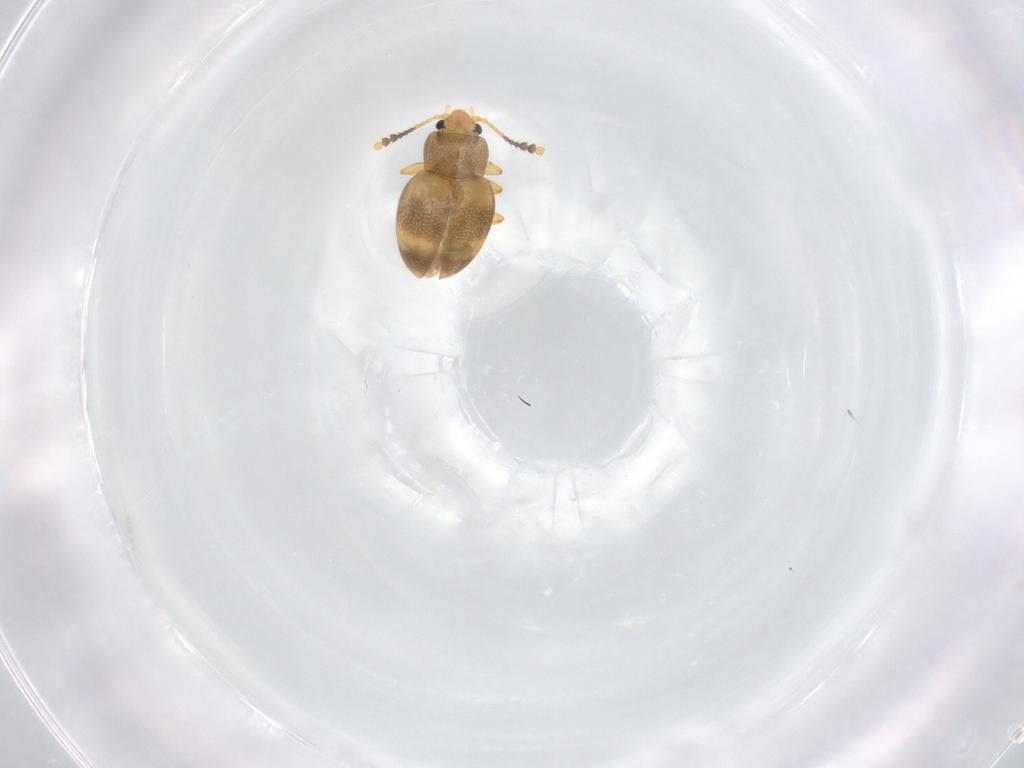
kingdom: Animalia
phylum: Arthropoda
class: Insecta
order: Coleoptera
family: Erotylidae
